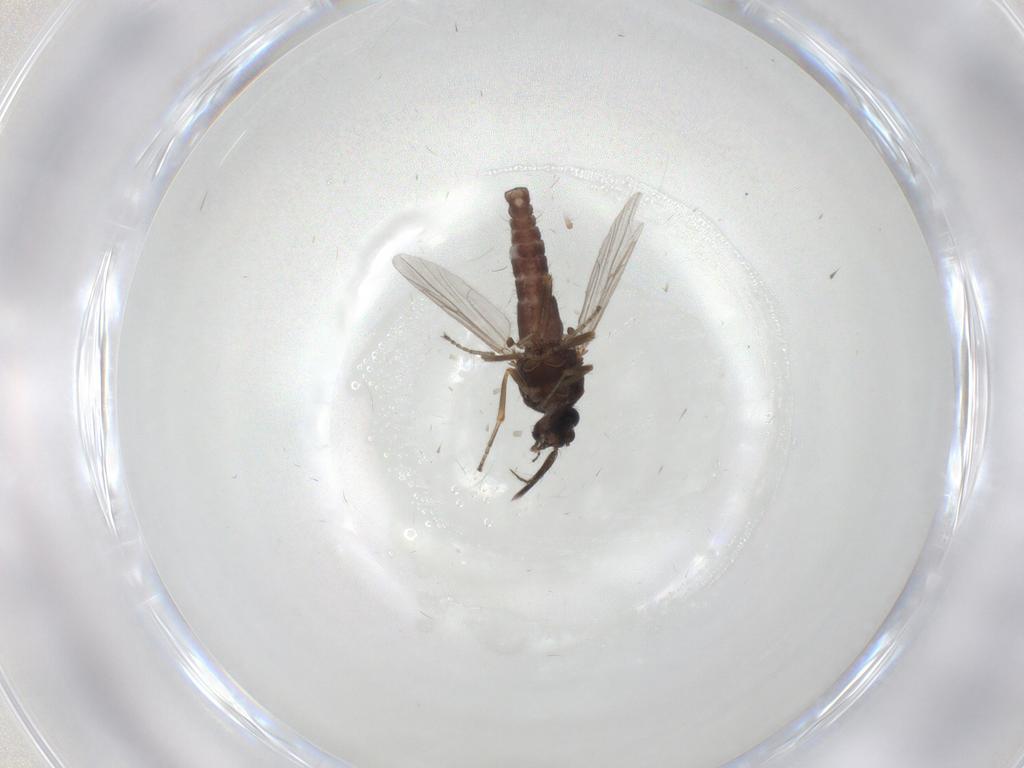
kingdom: Animalia
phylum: Arthropoda
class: Insecta
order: Diptera
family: Ceratopogonidae
